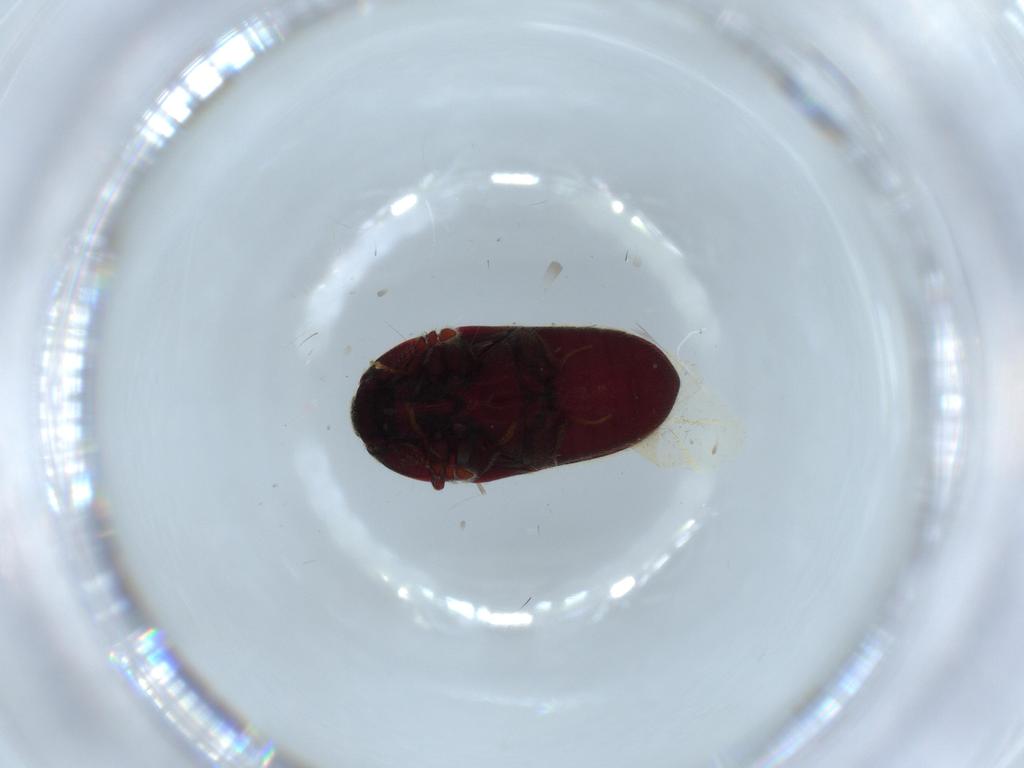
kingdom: Animalia
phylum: Arthropoda
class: Insecta
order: Coleoptera
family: Throscidae
